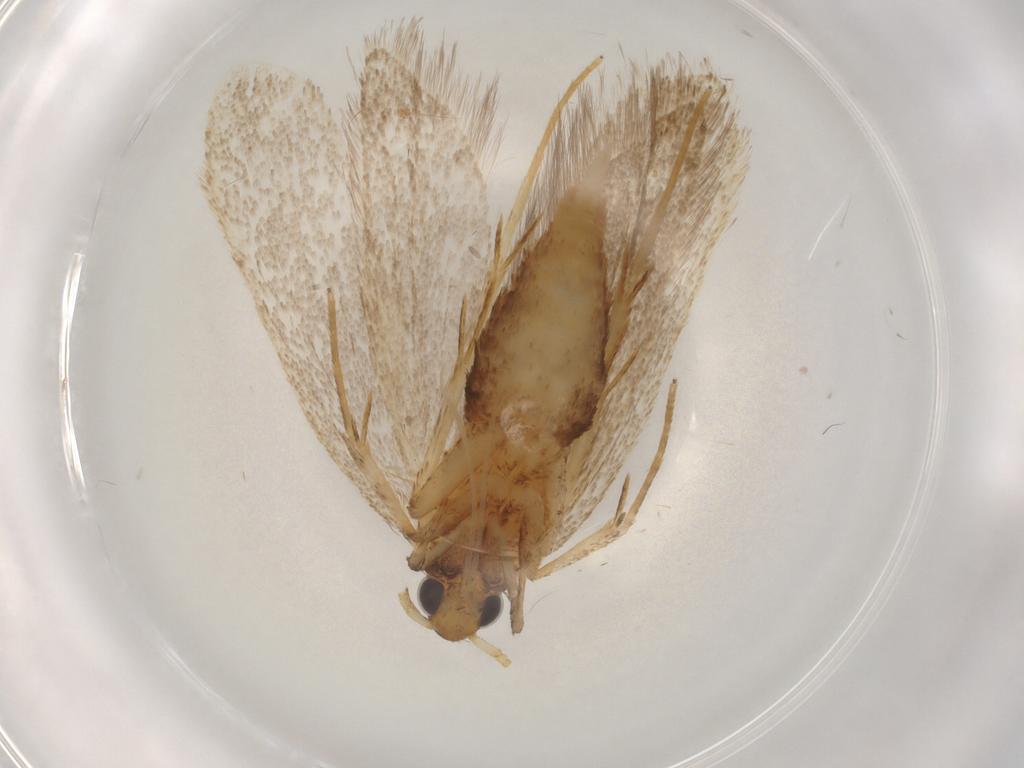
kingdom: Animalia
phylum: Arthropoda
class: Insecta
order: Lepidoptera
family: Lecithoceridae
